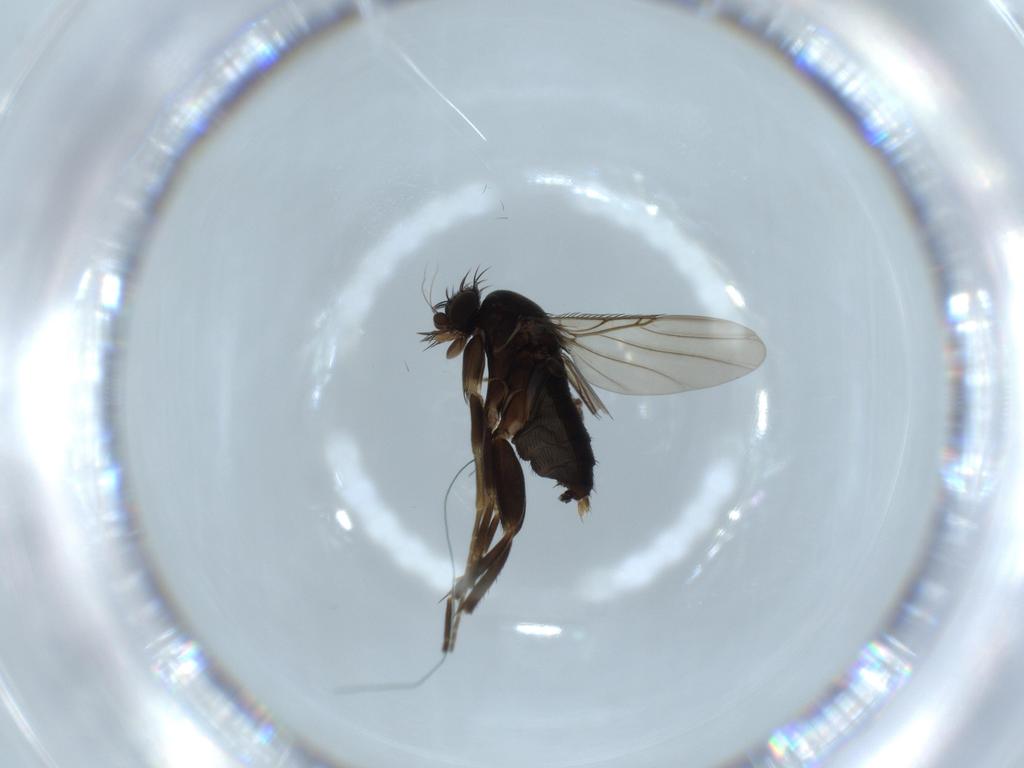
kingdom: Animalia
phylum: Arthropoda
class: Insecta
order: Diptera
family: Phoridae
